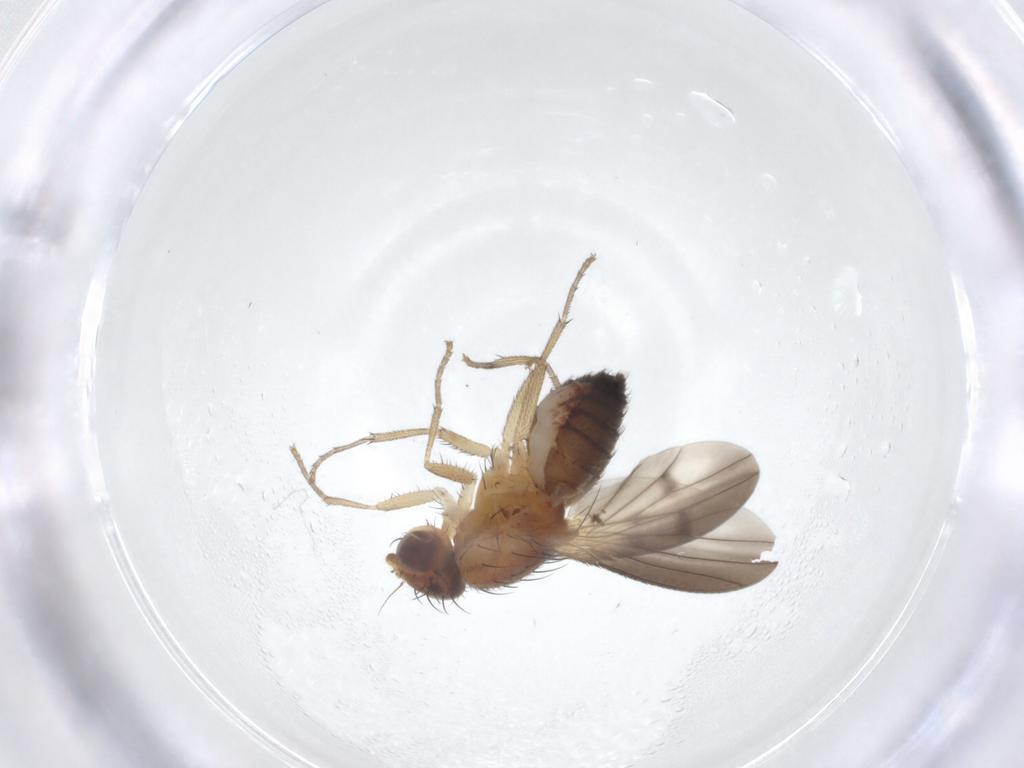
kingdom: Animalia
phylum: Arthropoda
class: Insecta
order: Diptera
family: Heleomyzidae
